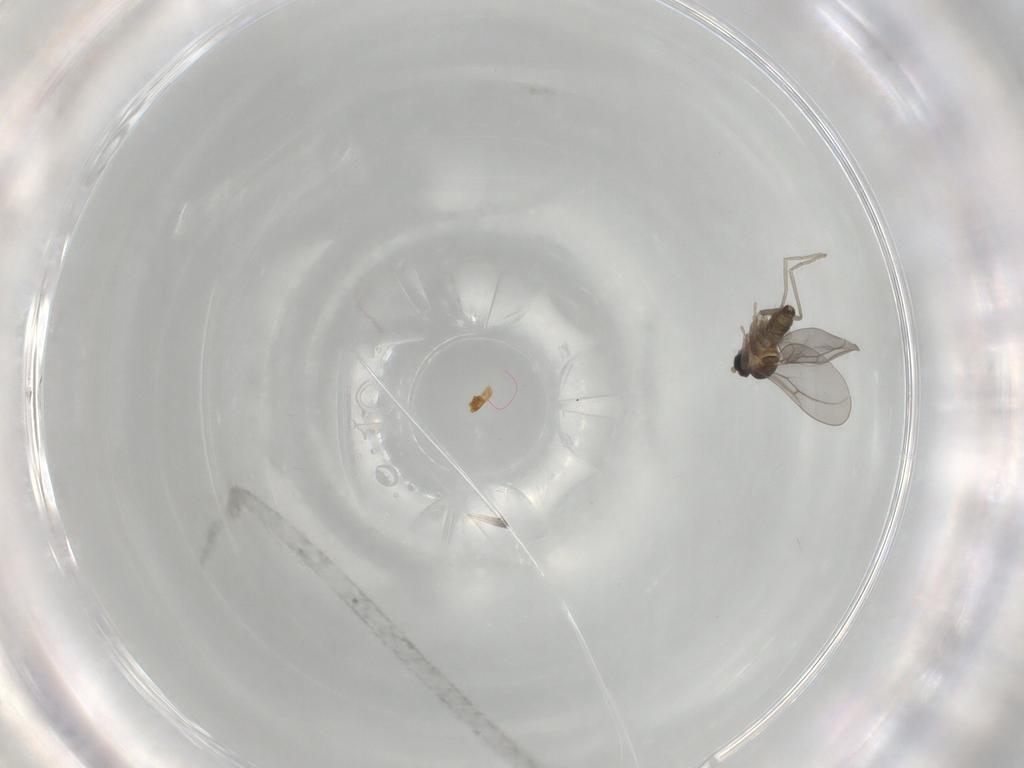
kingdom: Animalia
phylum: Arthropoda
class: Insecta
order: Diptera
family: Cecidomyiidae
